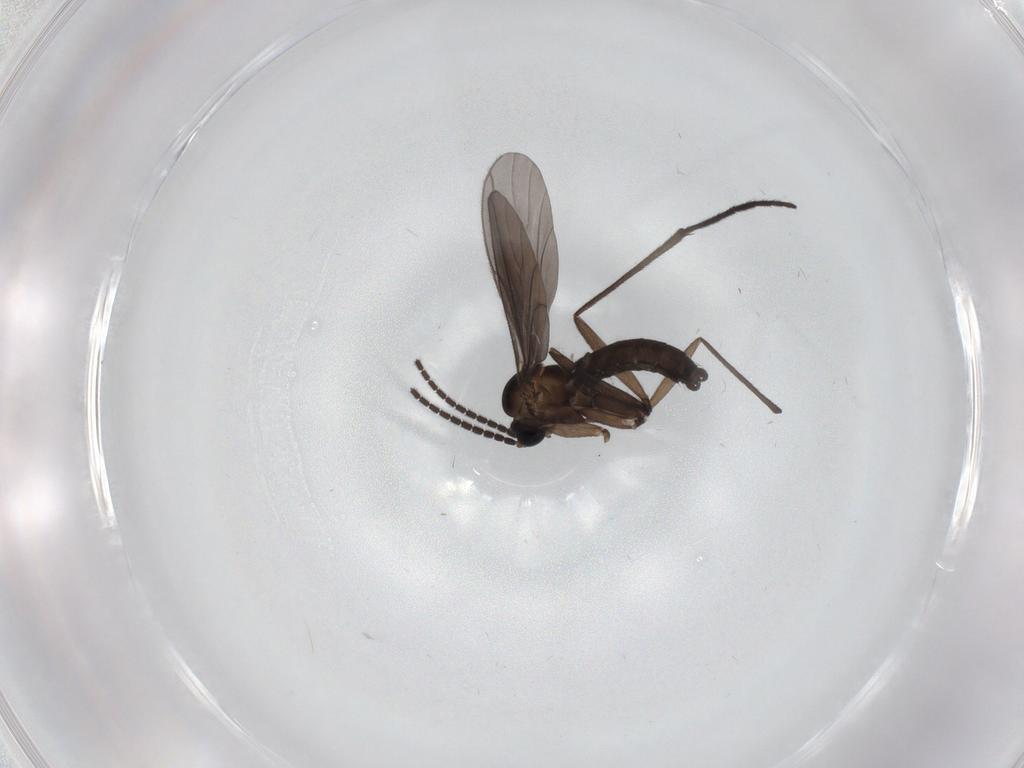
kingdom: Animalia
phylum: Arthropoda
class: Insecta
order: Diptera
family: Sciaridae
